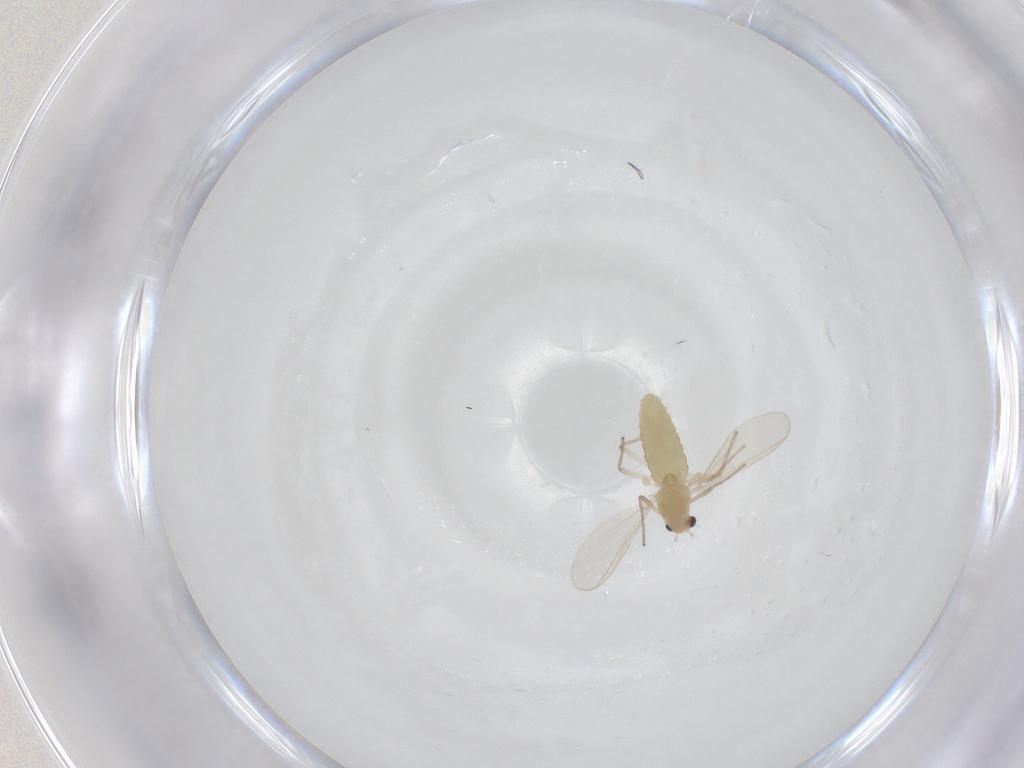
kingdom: Animalia
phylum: Arthropoda
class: Insecta
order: Diptera
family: Chironomidae
